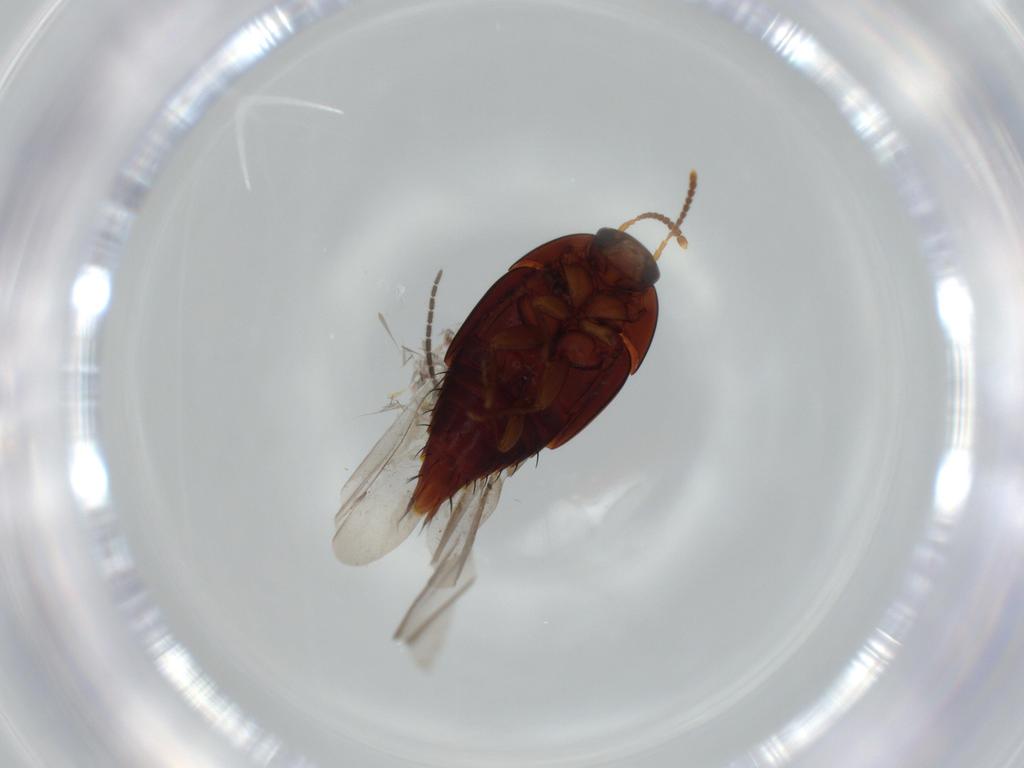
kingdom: Animalia
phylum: Arthropoda
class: Insecta
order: Coleoptera
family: Staphylinidae
